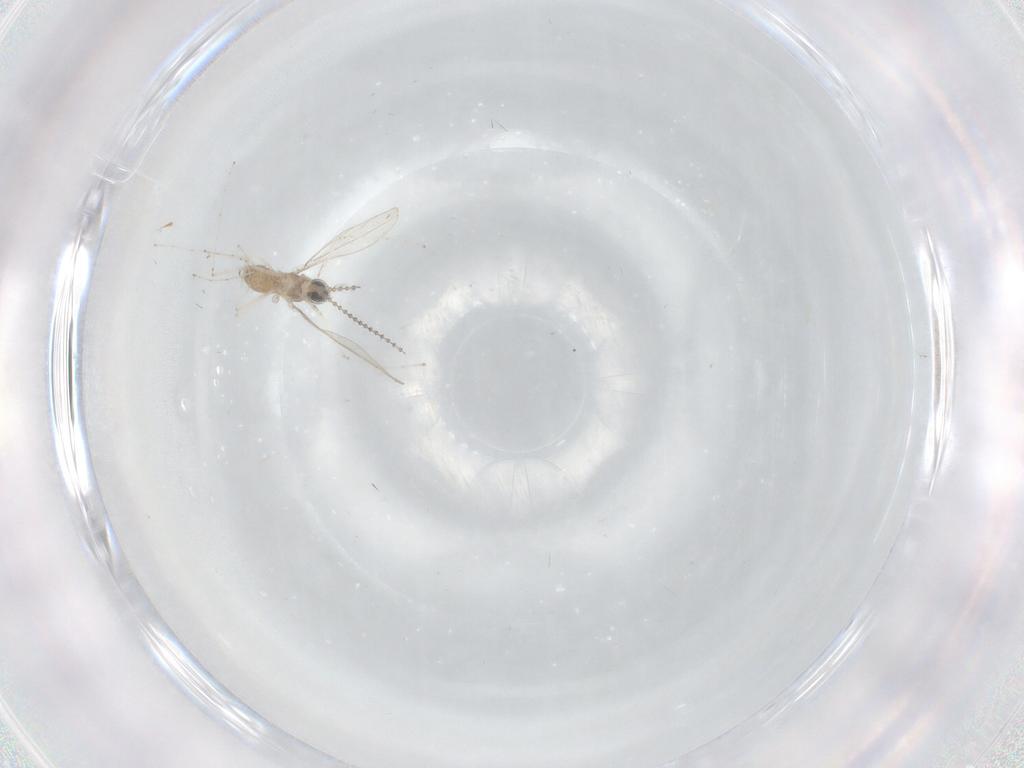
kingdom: Animalia
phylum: Arthropoda
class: Insecta
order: Diptera
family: Cecidomyiidae
